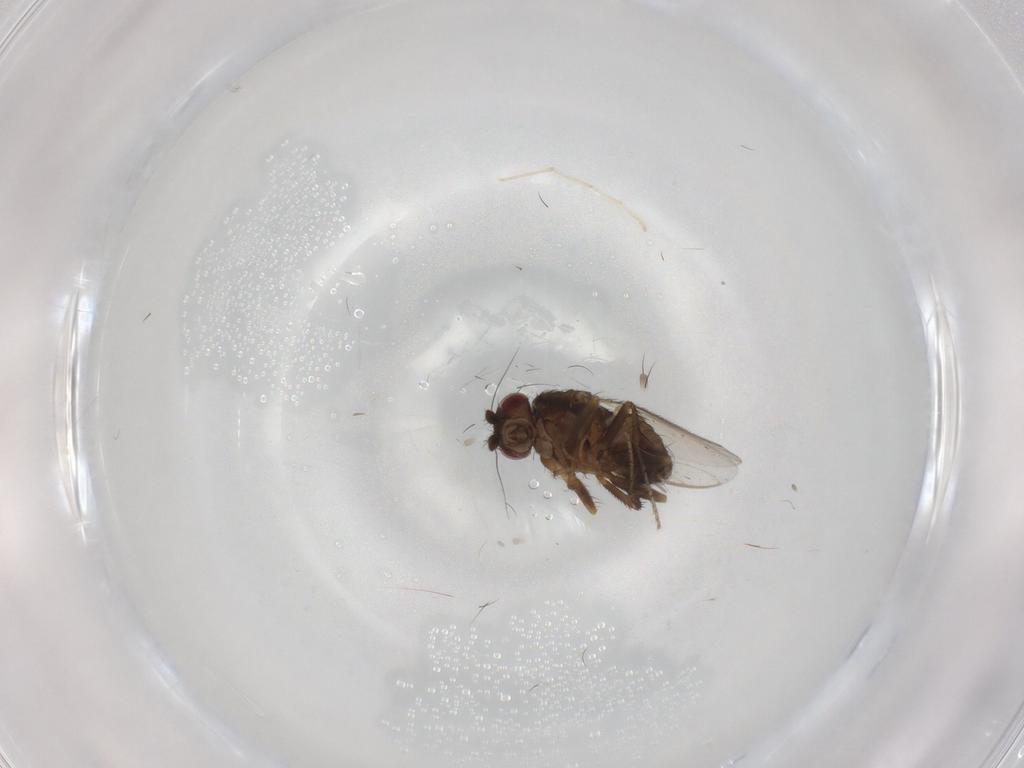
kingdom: Animalia
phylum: Arthropoda
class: Insecta
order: Diptera
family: Sphaeroceridae
